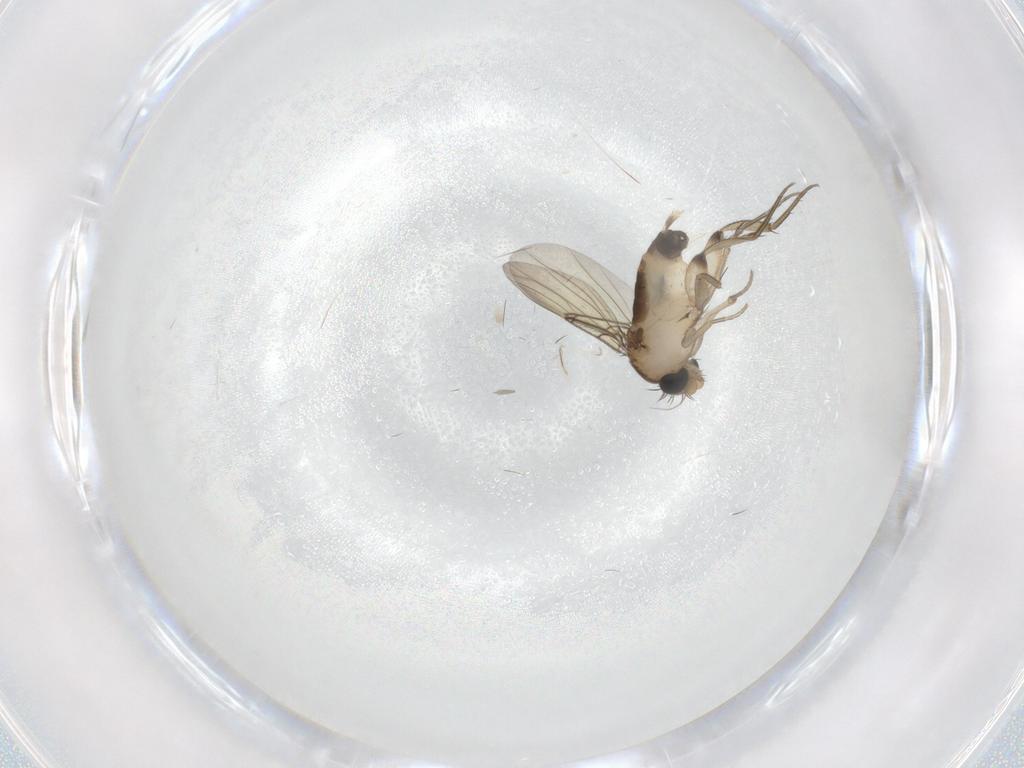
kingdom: Animalia
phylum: Arthropoda
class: Insecta
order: Diptera
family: Phoridae
